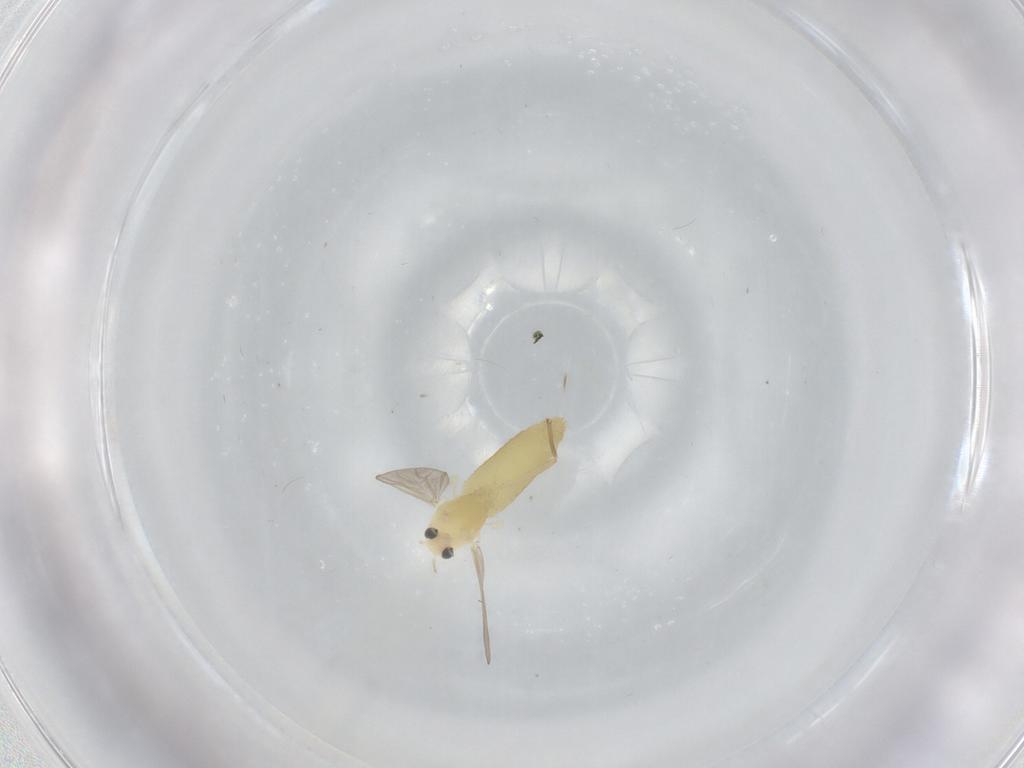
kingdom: Animalia
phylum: Arthropoda
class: Insecta
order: Diptera
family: Chironomidae
